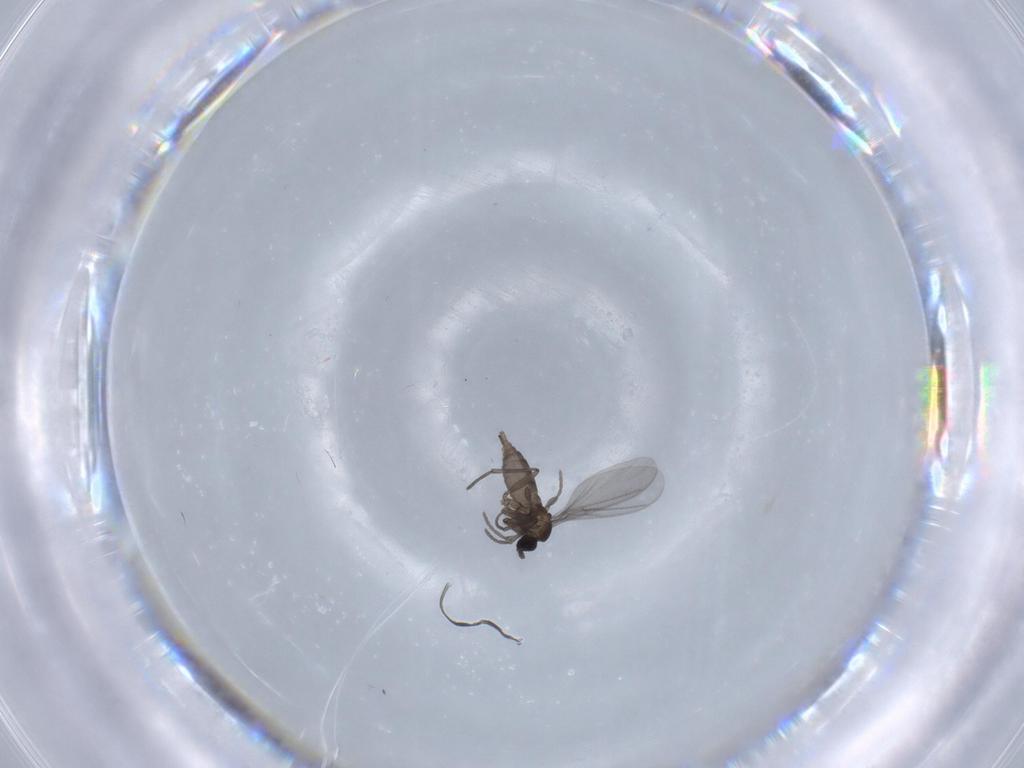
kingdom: Animalia
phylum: Arthropoda
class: Insecta
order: Diptera
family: Sciaridae
